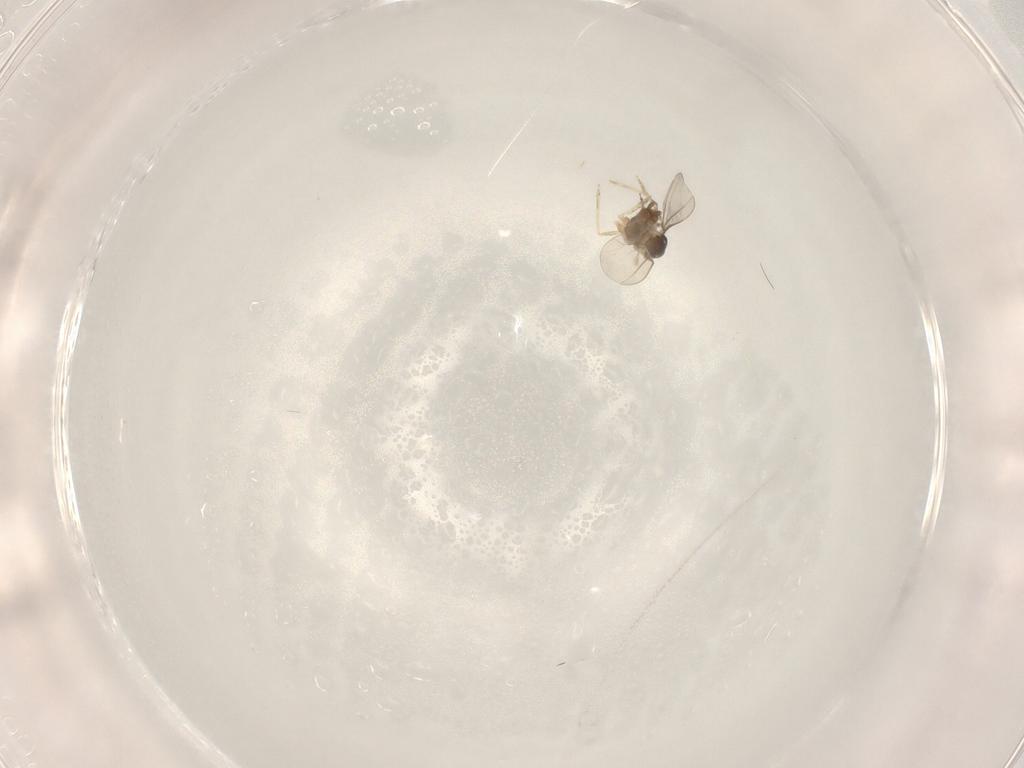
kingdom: Animalia
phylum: Arthropoda
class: Insecta
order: Diptera
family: Cecidomyiidae
